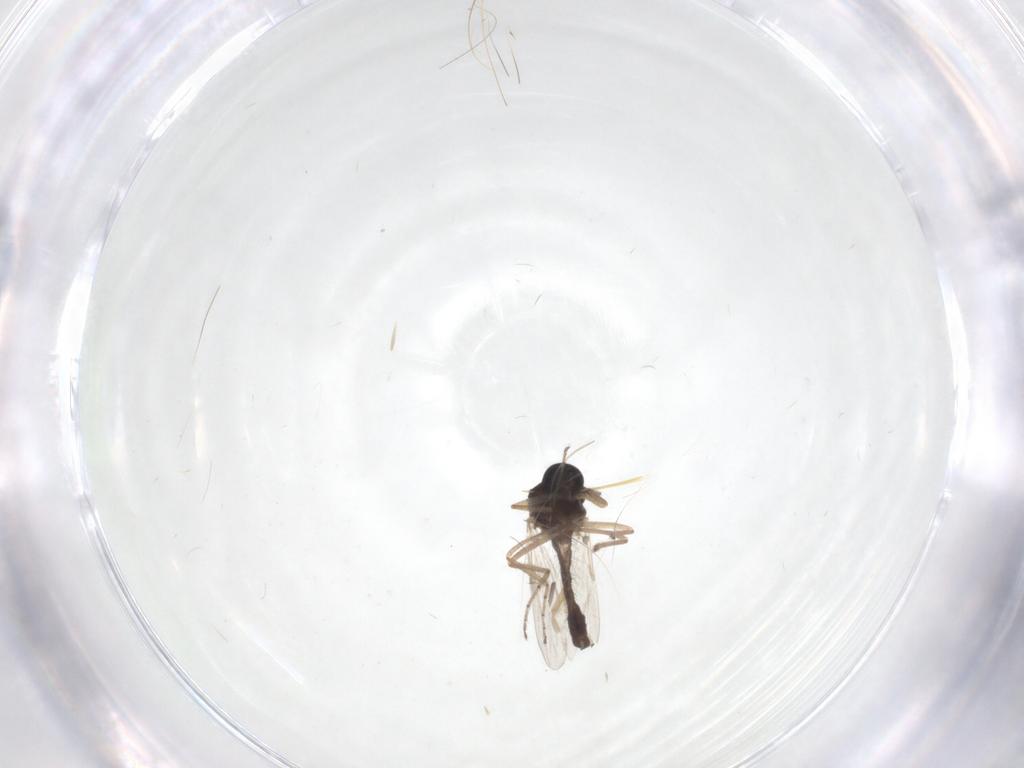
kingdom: Animalia
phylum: Arthropoda
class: Insecta
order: Diptera
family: Ceratopogonidae
